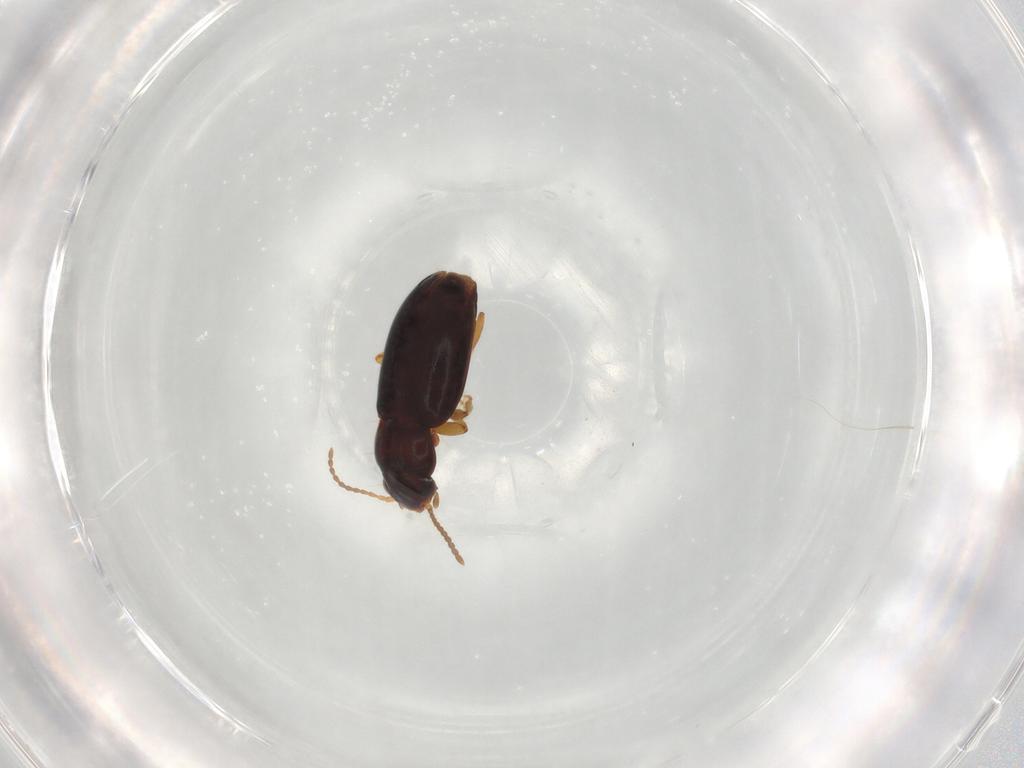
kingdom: Animalia
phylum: Arthropoda
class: Insecta
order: Coleoptera
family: Carabidae
